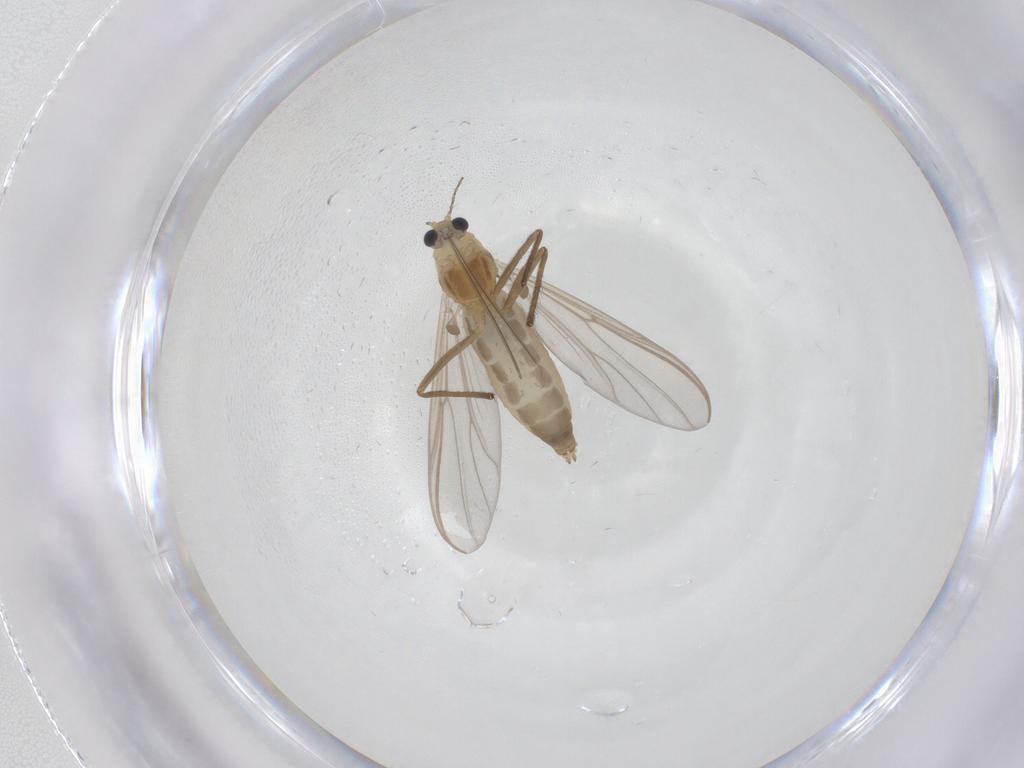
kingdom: Animalia
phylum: Arthropoda
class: Insecta
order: Diptera
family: Chironomidae
